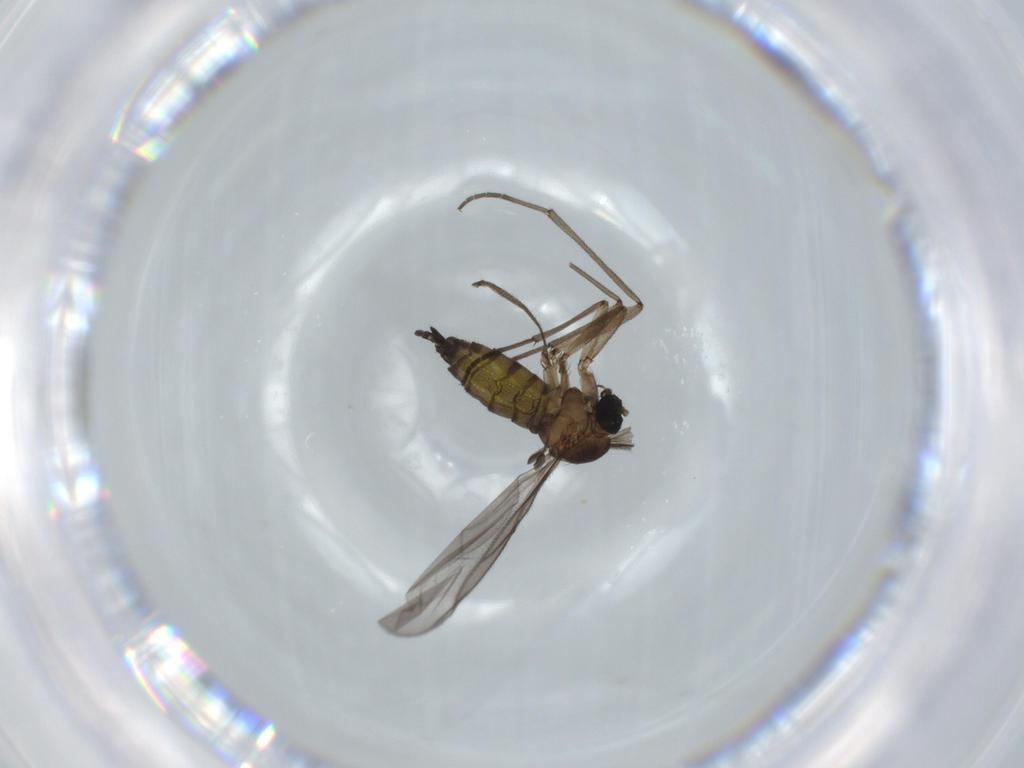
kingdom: Animalia
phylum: Arthropoda
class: Insecta
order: Diptera
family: Sciaridae
